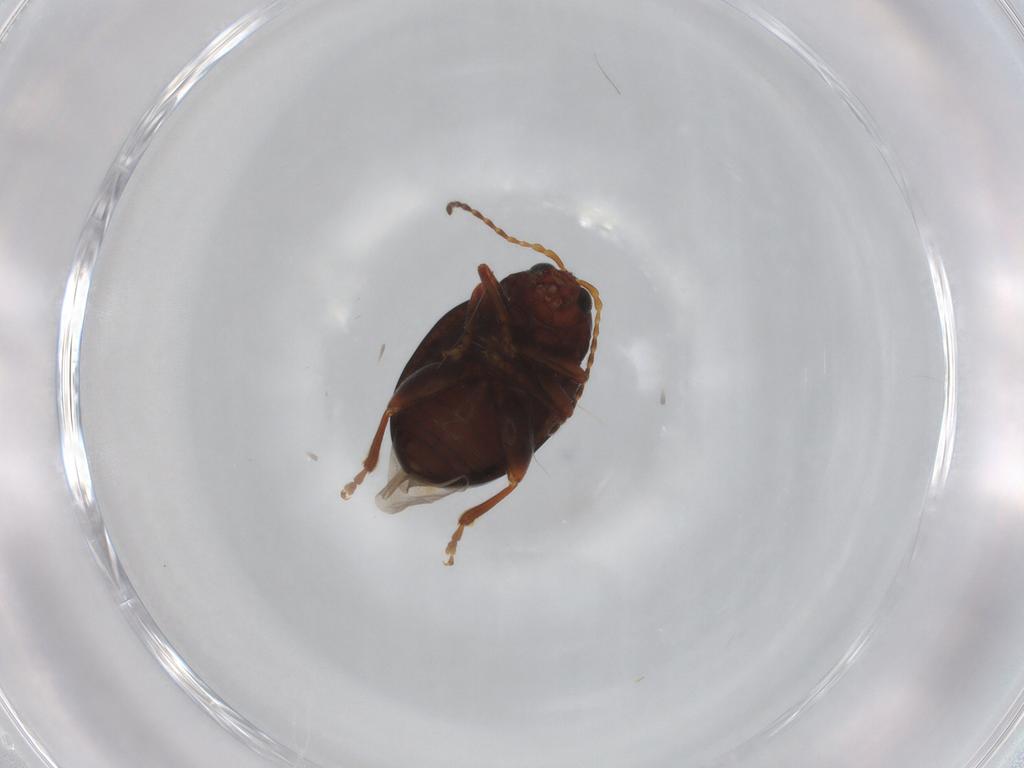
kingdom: Animalia
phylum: Arthropoda
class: Insecta
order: Coleoptera
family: Chrysomelidae
